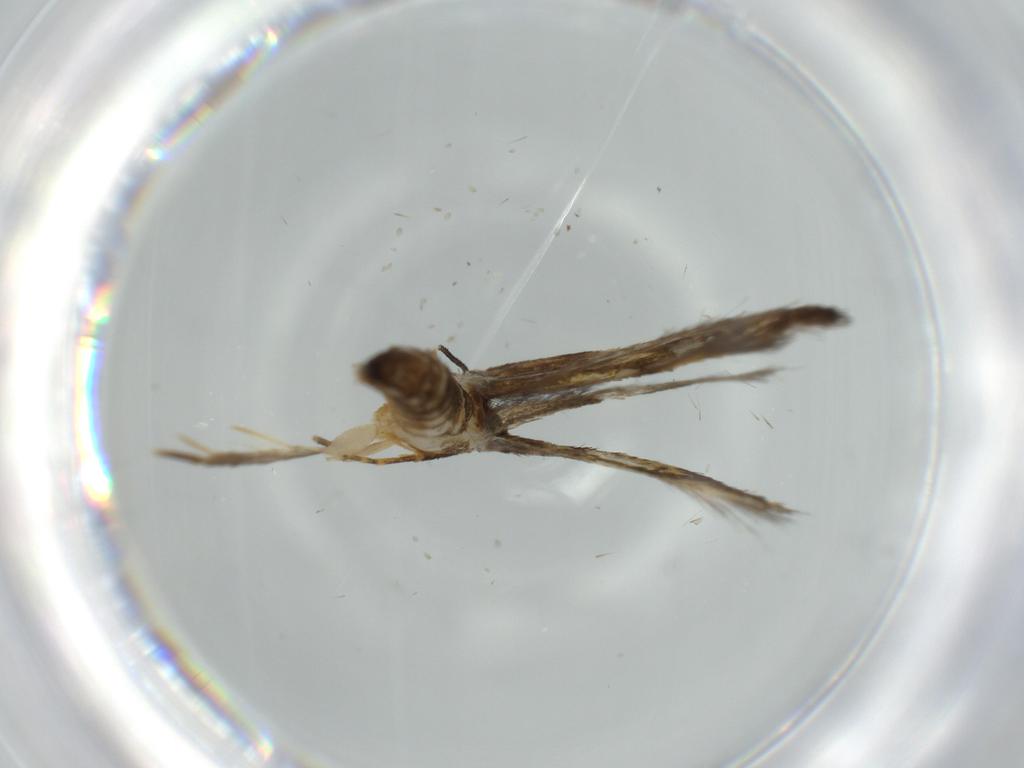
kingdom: Animalia
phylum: Arthropoda
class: Insecta
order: Lepidoptera
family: Tineidae
